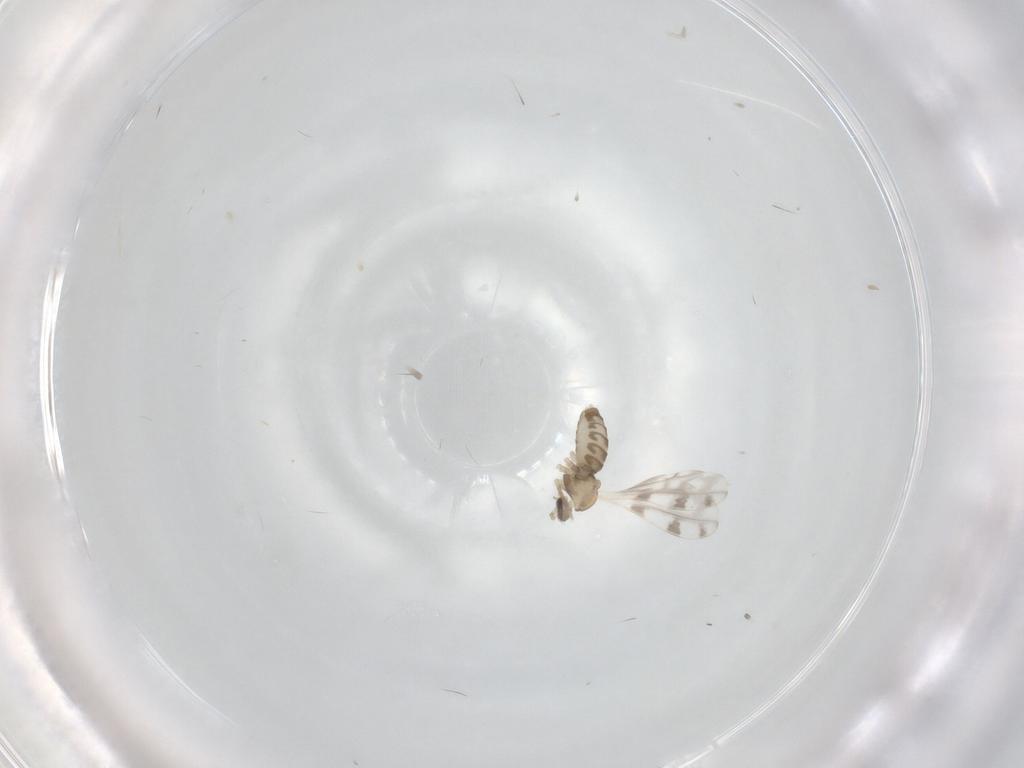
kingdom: Animalia
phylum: Arthropoda
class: Insecta
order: Diptera
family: Cecidomyiidae
